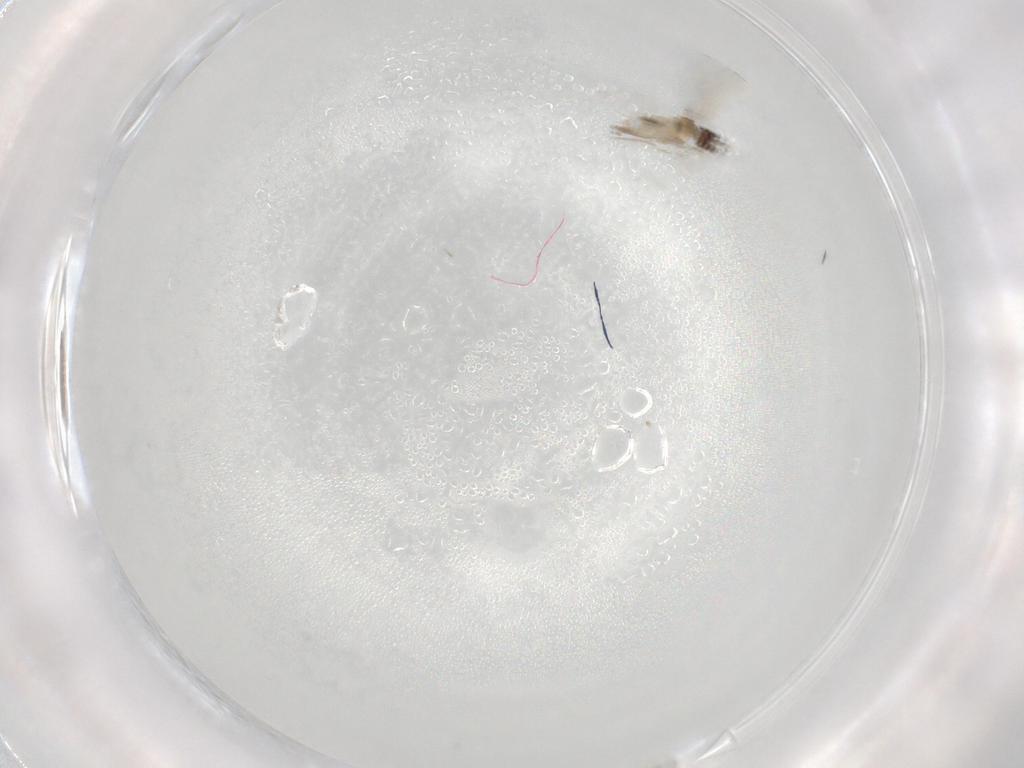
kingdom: Animalia
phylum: Arthropoda
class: Insecta
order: Diptera
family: Cecidomyiidae
